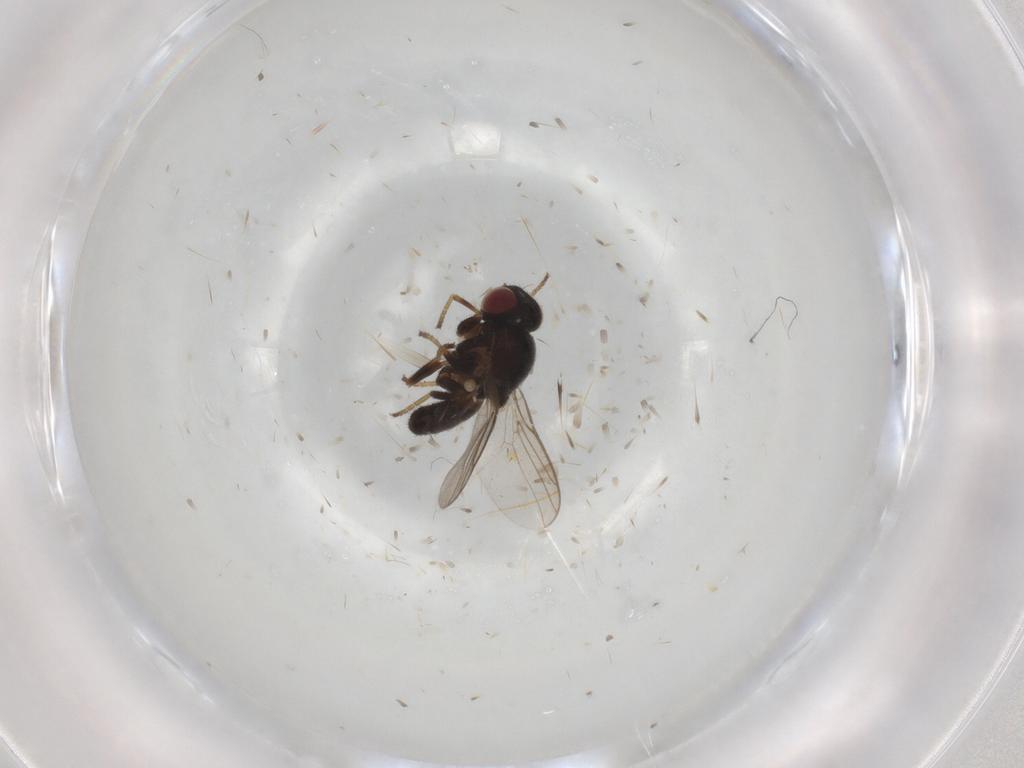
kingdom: Animalia
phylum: Arthropoda
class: Insecta
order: Diptera
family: Chloropidae
